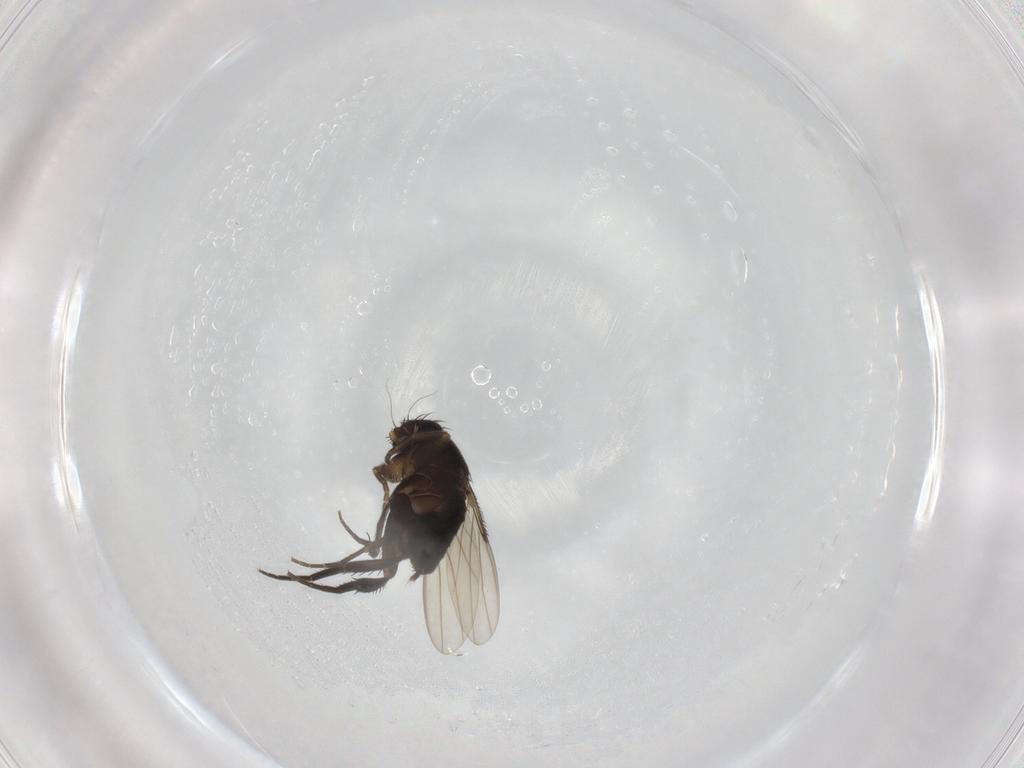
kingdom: Animalia
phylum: Arthropoda
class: Insecta
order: Diptera
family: Phoridae
